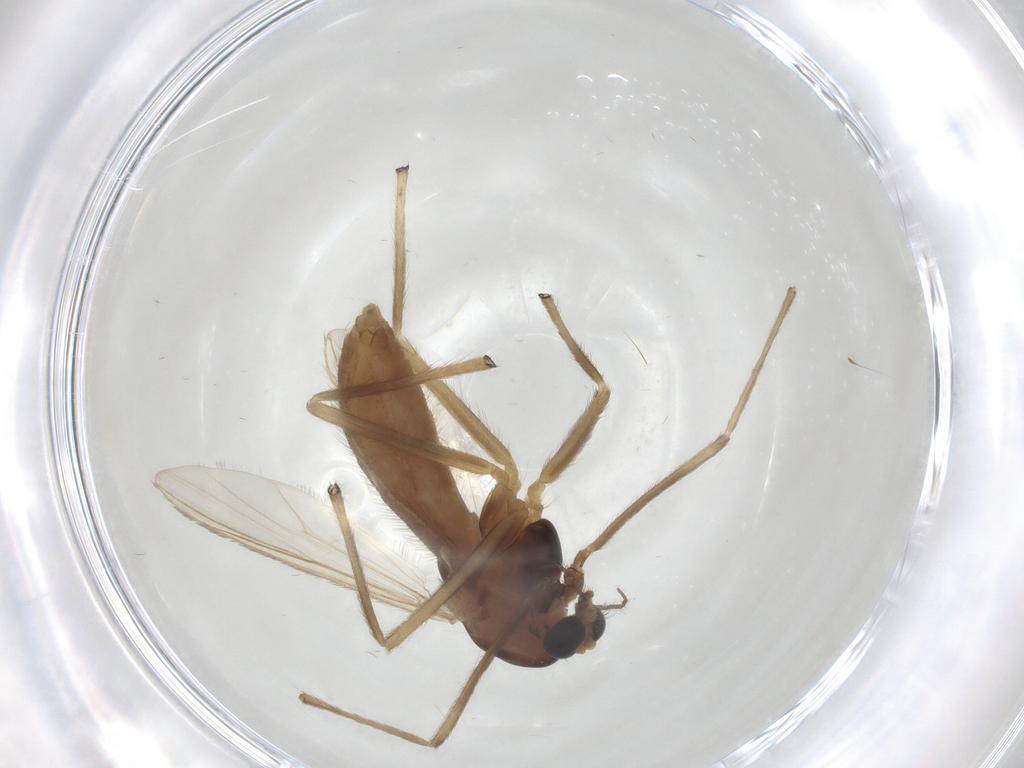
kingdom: Animalia
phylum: Arthropoda
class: Insecta
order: Diptera
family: Chironomidae
